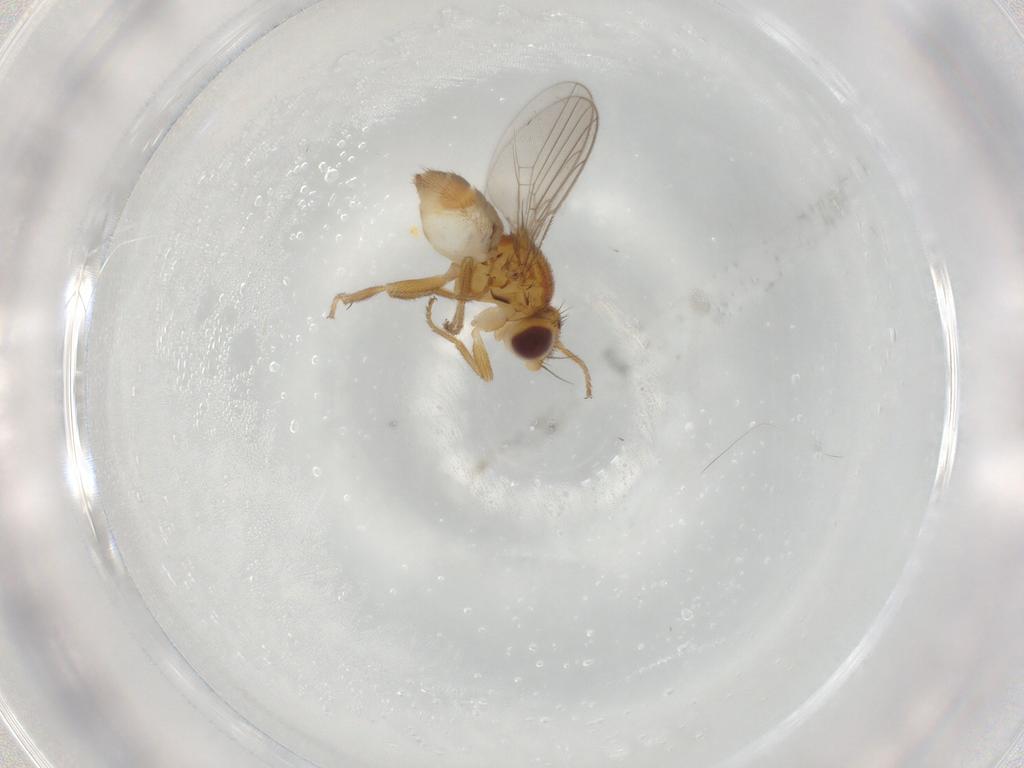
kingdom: Animalia
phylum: Arthropoda
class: Insecta
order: Diptera
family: Chloropidae
